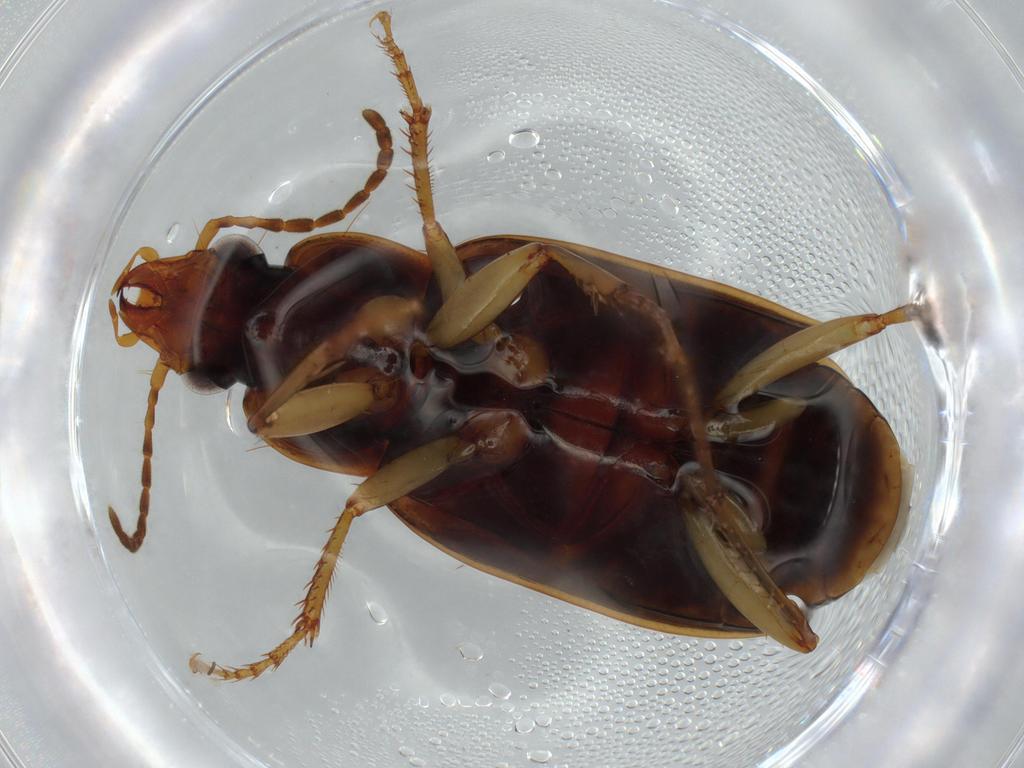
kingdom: Animalia
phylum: Arthropoda
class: Insecta
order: Coleoptera
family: Carabidae
